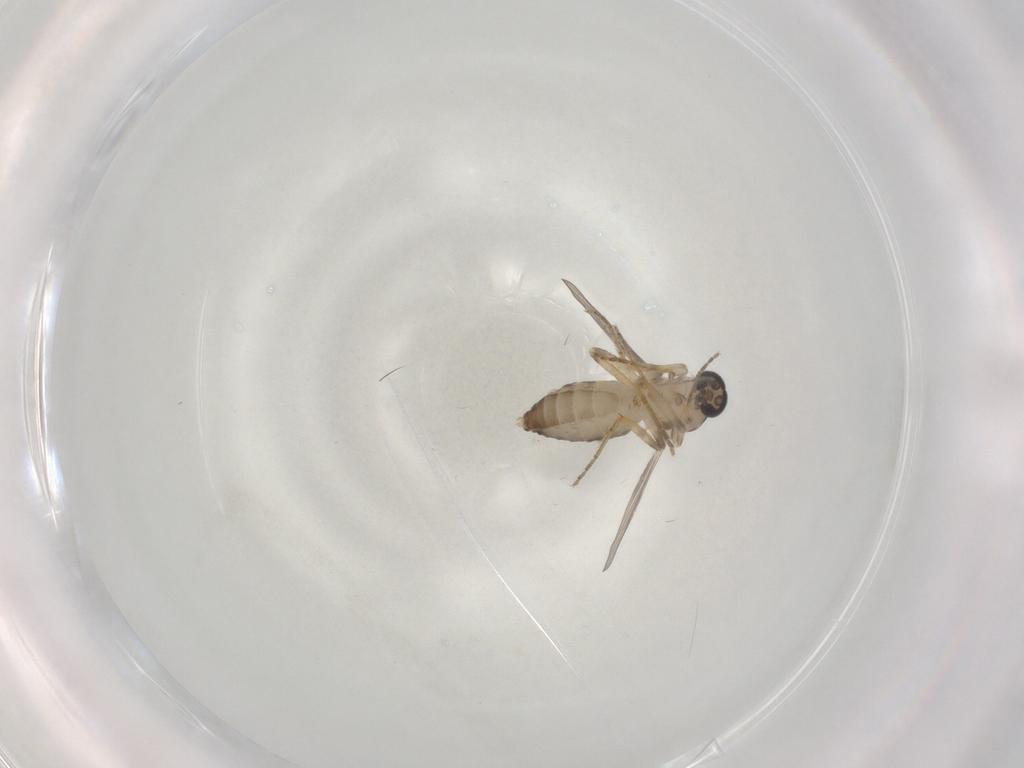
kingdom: Animalia
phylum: Arthropoda
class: Insecta
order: Diptera
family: Ceratopogonidae
